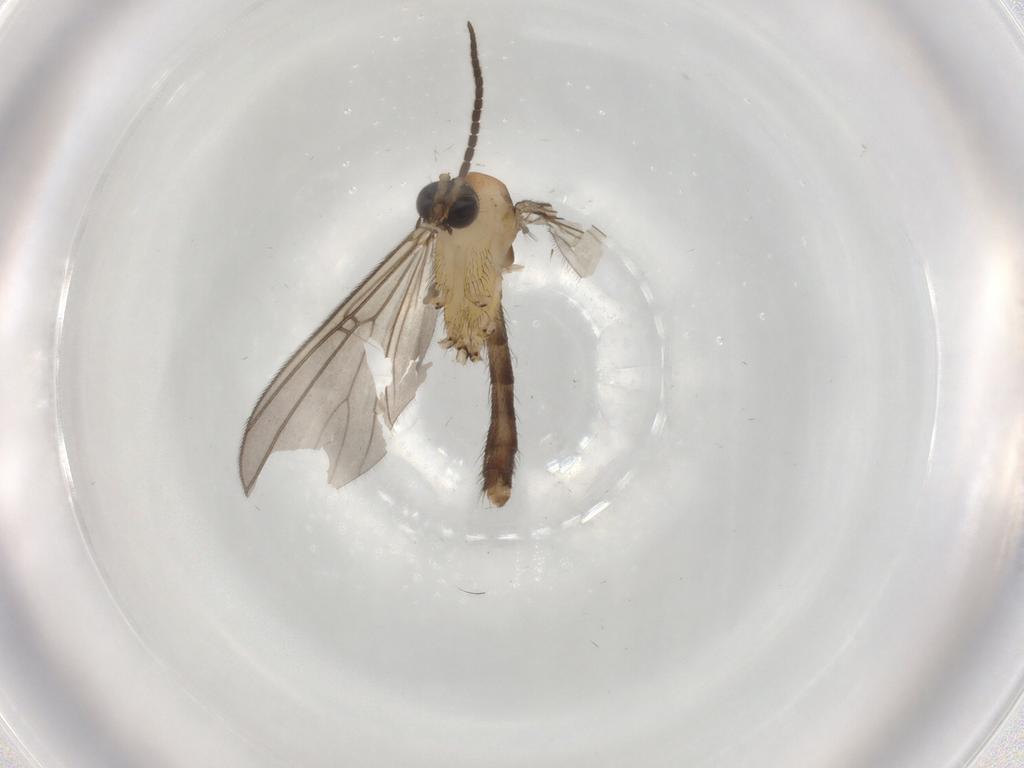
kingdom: Animalia
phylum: Arthropoda
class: Insecta
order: Diptera
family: Mycetophilidae
